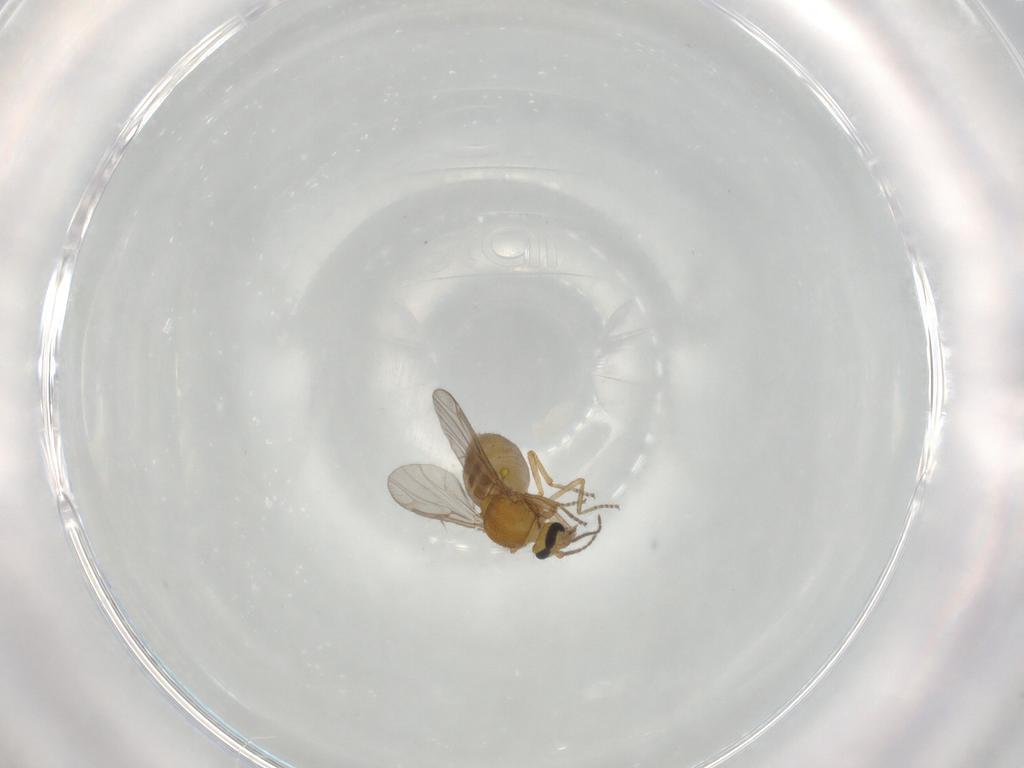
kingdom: Animalia
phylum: Arthropoda
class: Insecta
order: Diptera
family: Ceratopogonidae
